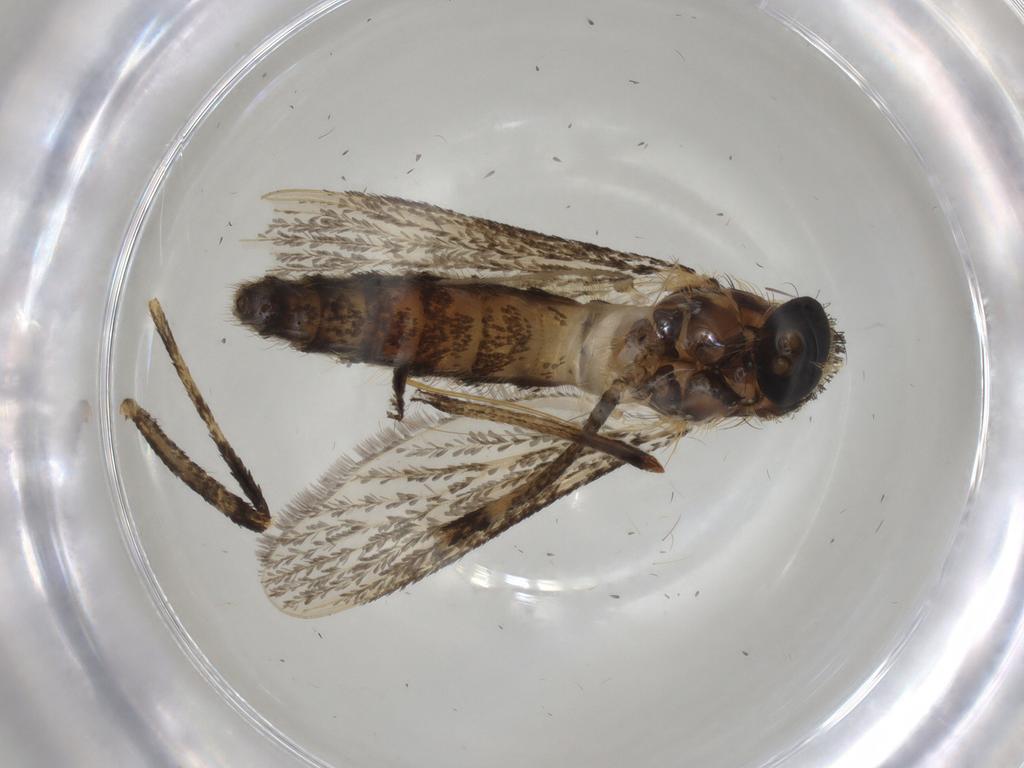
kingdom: Animalia
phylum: Arthropoda
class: Insecta
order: Diptera
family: Culicidae
